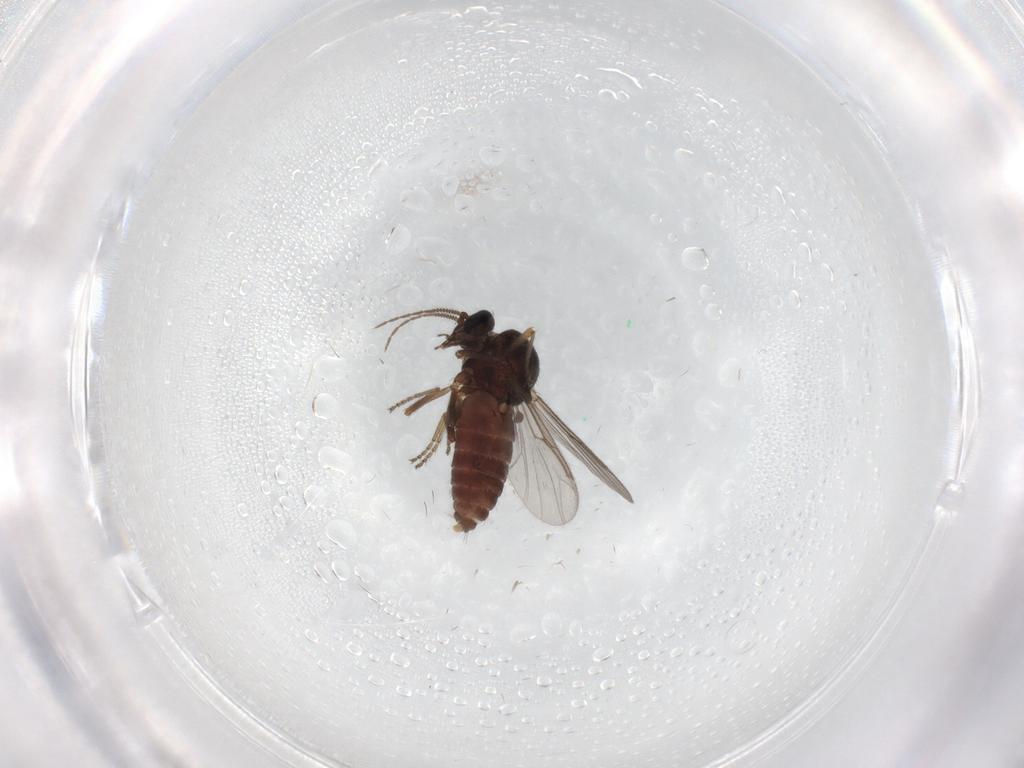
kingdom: Animalia
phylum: Arthropoda
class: Insecta
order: Diptera
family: Ceratopogonidae
